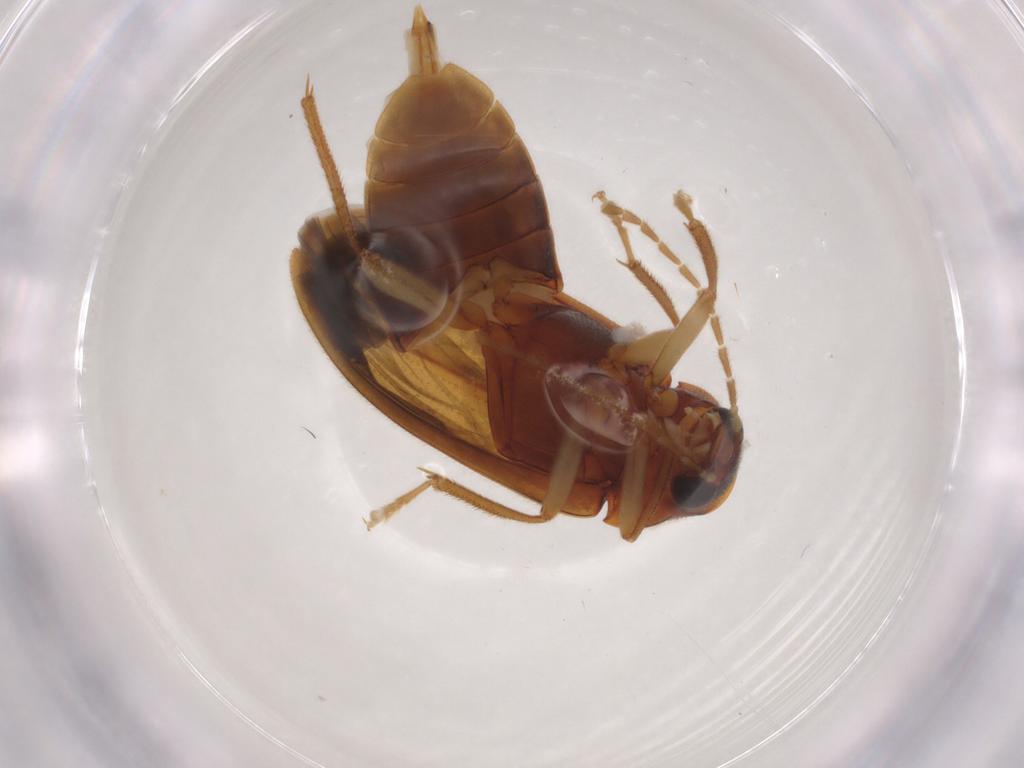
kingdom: Animalia
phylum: Arthropoda
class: Insecta
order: Coleoptera
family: Ptilodactylidae
